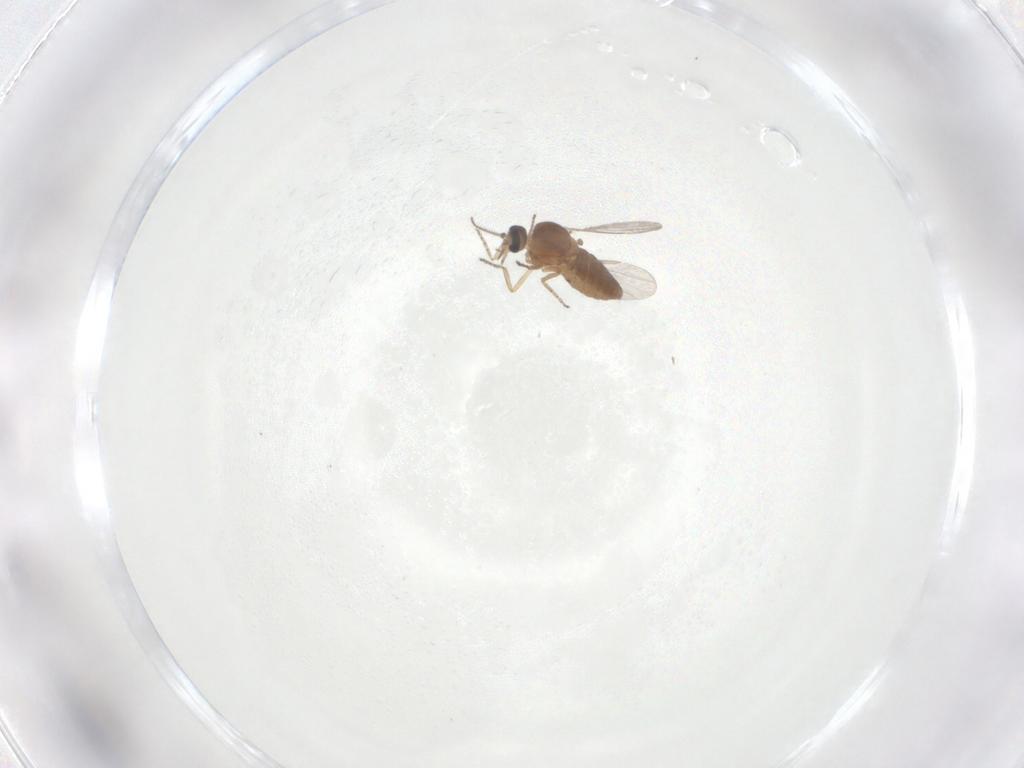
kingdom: Animalia
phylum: Arthropoda
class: Insecta
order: Diptera
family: Ceratopogonidae
